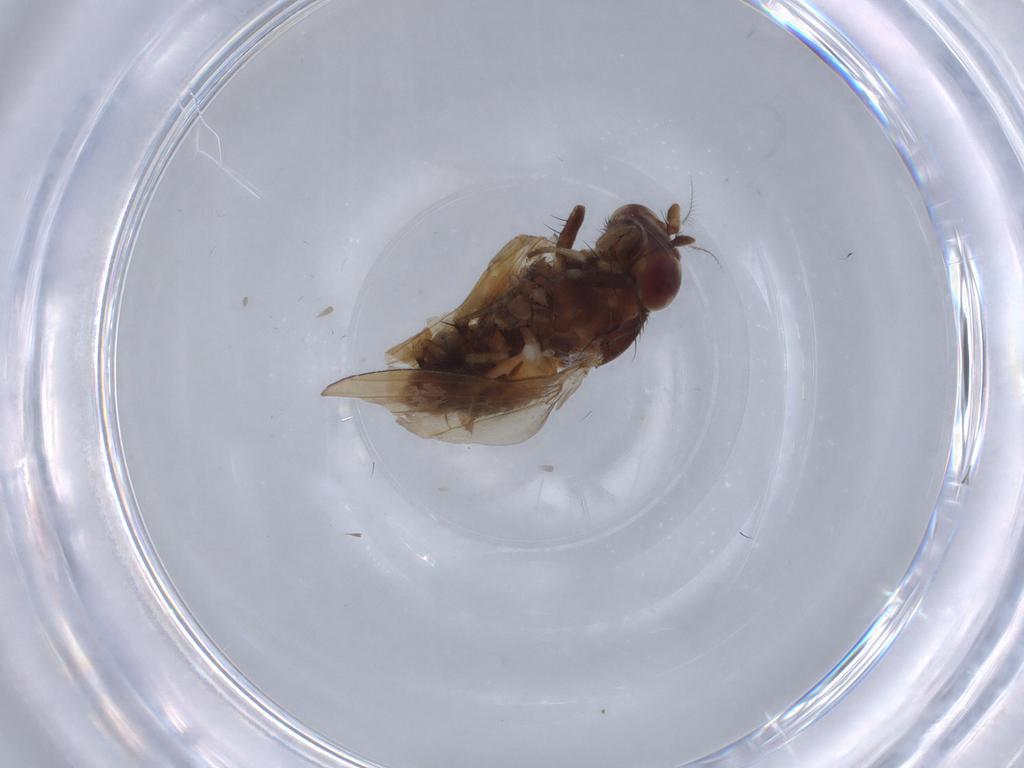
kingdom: Animalia
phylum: Arthropoda
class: Insecta
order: Diptera
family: Chloropidae
